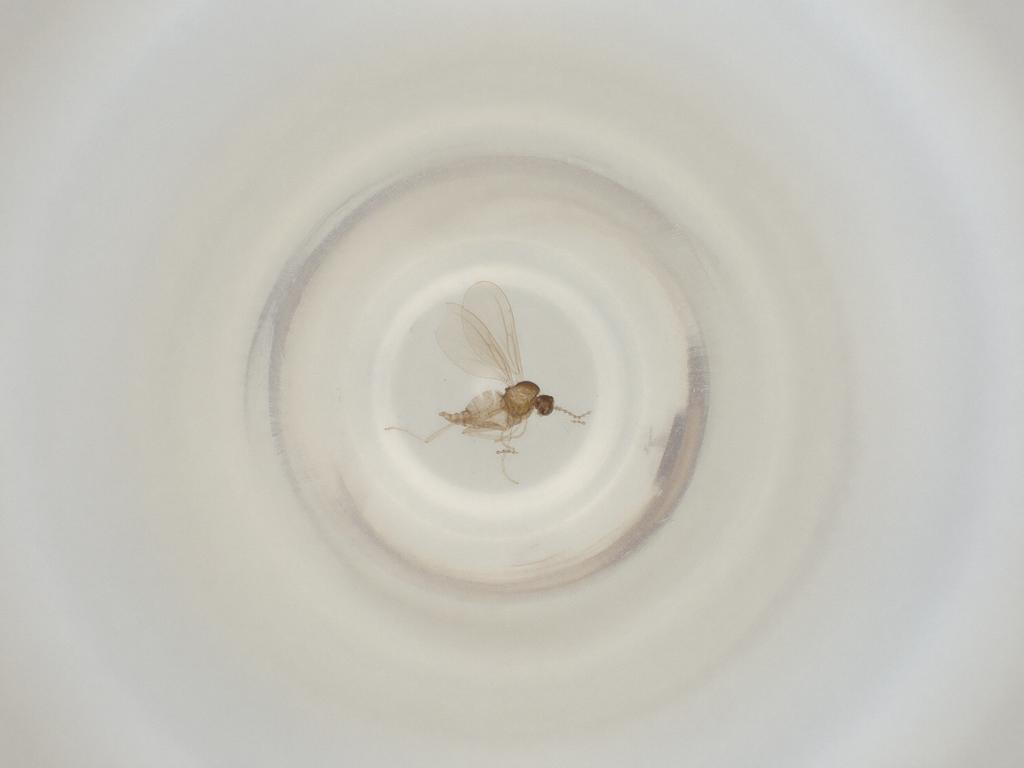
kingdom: Animalia
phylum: Arthropoda
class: Insecta
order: Diptera
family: Cecidomyiidae
